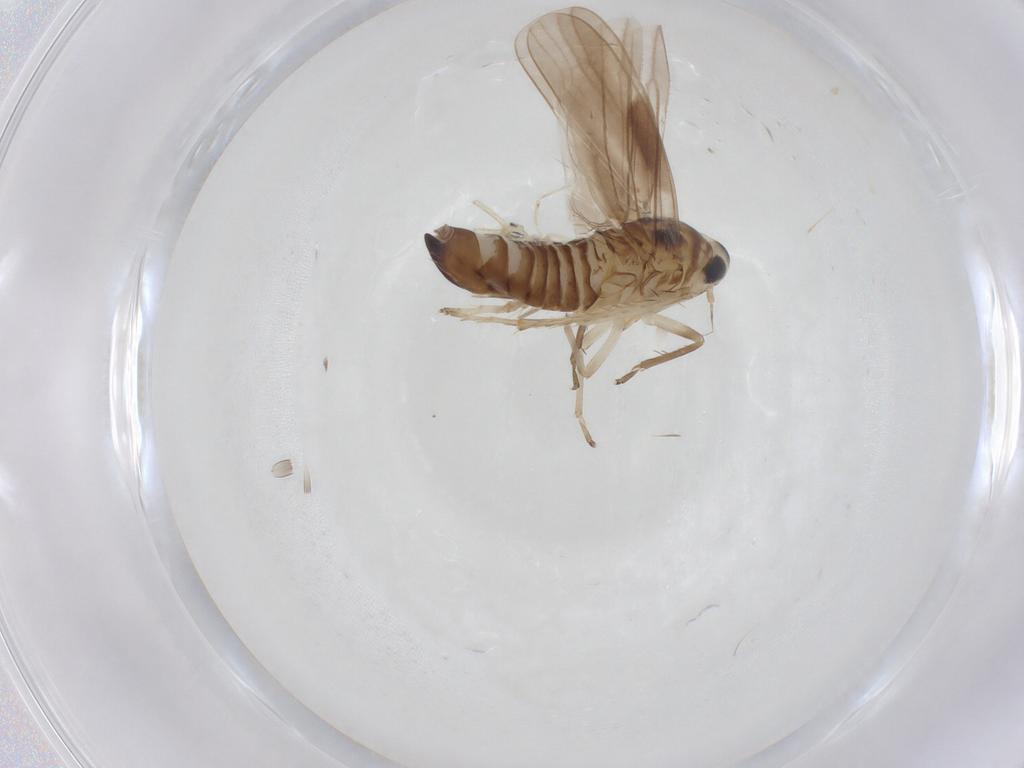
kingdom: Animalia
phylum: Arthropoda
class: Insecta
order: Hemiptera
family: Cicadellidae
